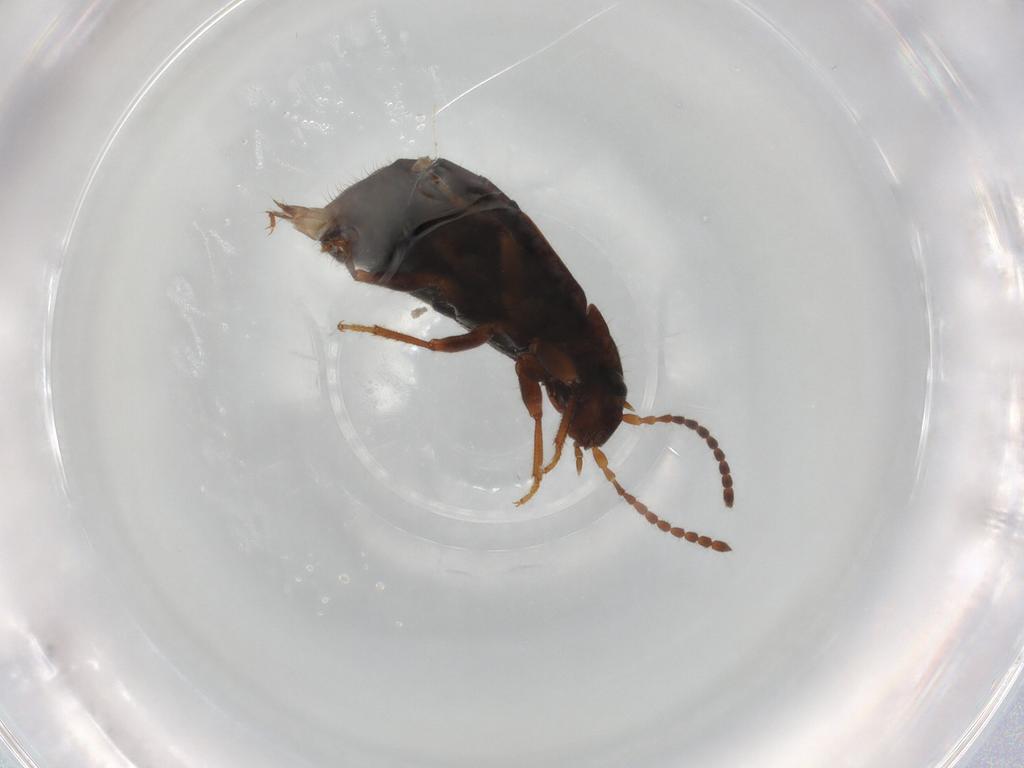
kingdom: Animalia
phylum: Arthropoda
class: Insecta
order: Coleoptera
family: Staphylinidae
